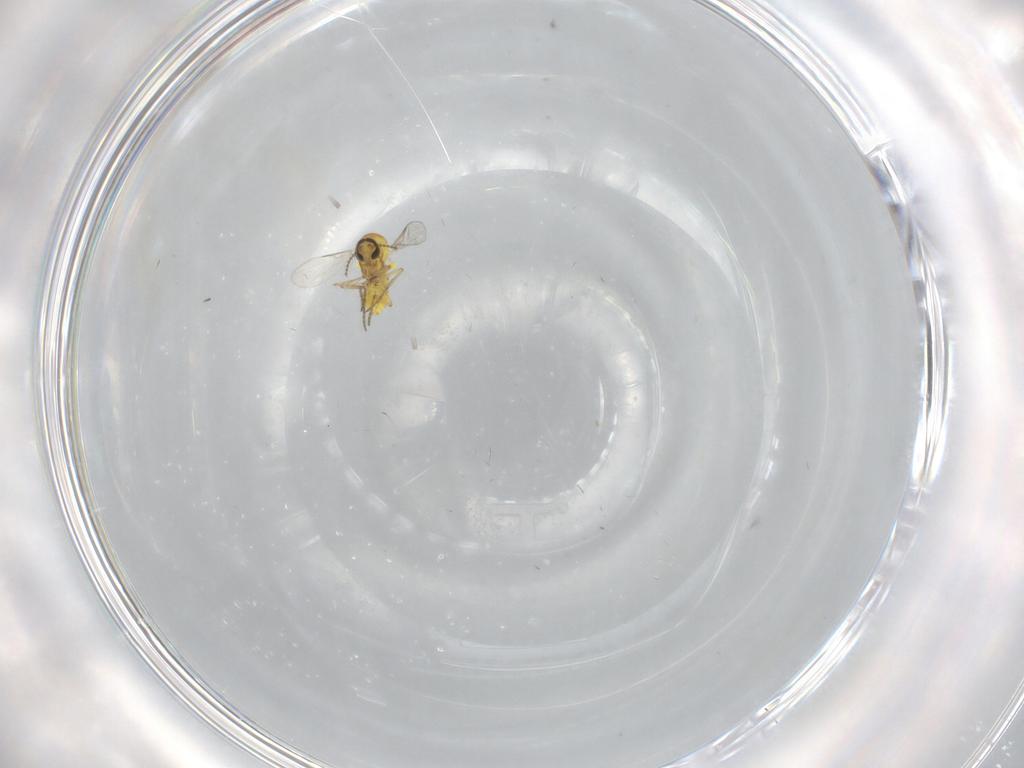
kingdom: Animalia
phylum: Arthropoda
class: Insecta
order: Diptera
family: Ceratopogonidae
